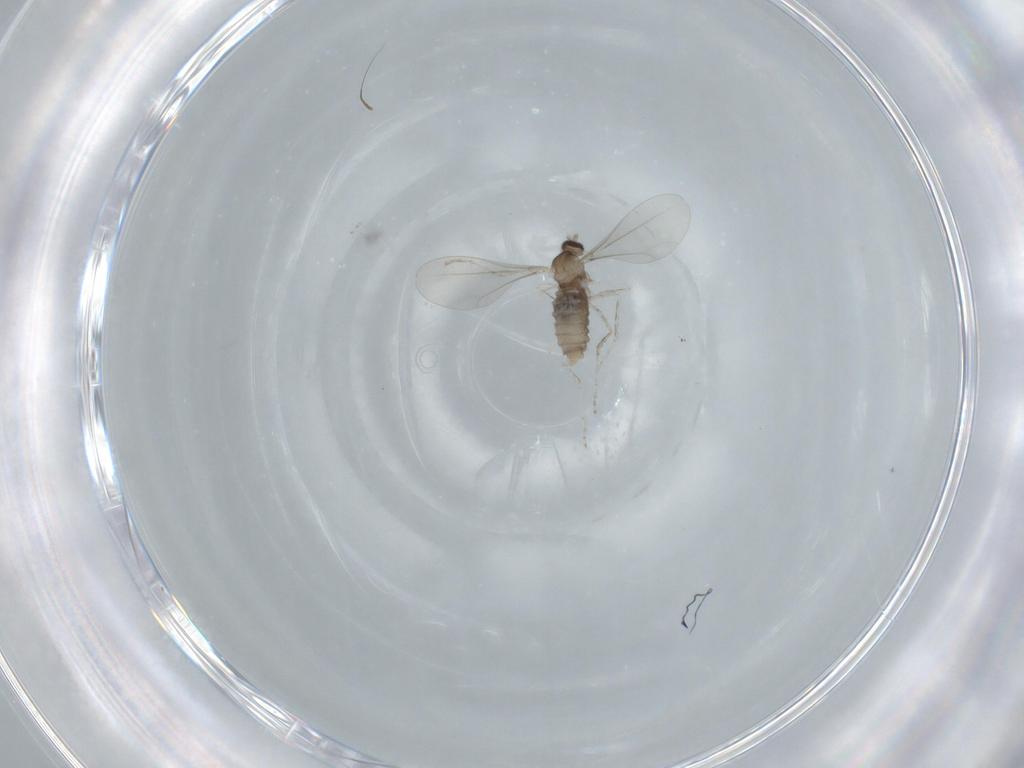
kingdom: Animalia
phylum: Arthropoda
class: Insecta
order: Diptera
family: Cecidomyiidae
